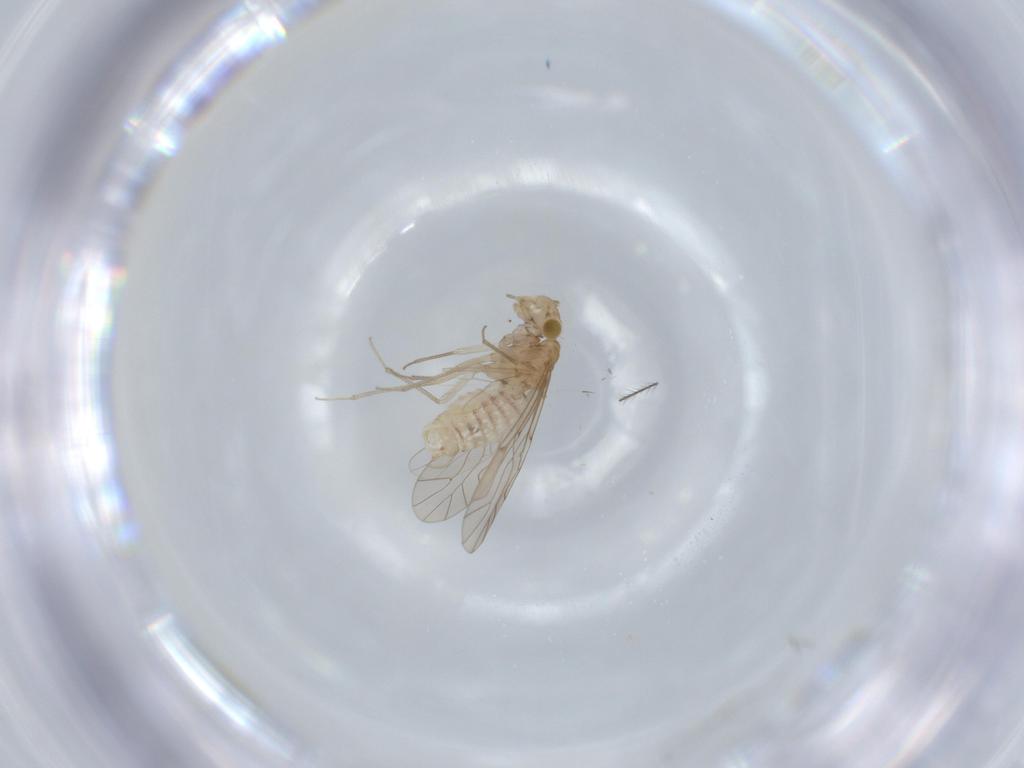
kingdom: Animalia
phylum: Arthropoda
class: Insecta
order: Psocodea
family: Lachesillidae
